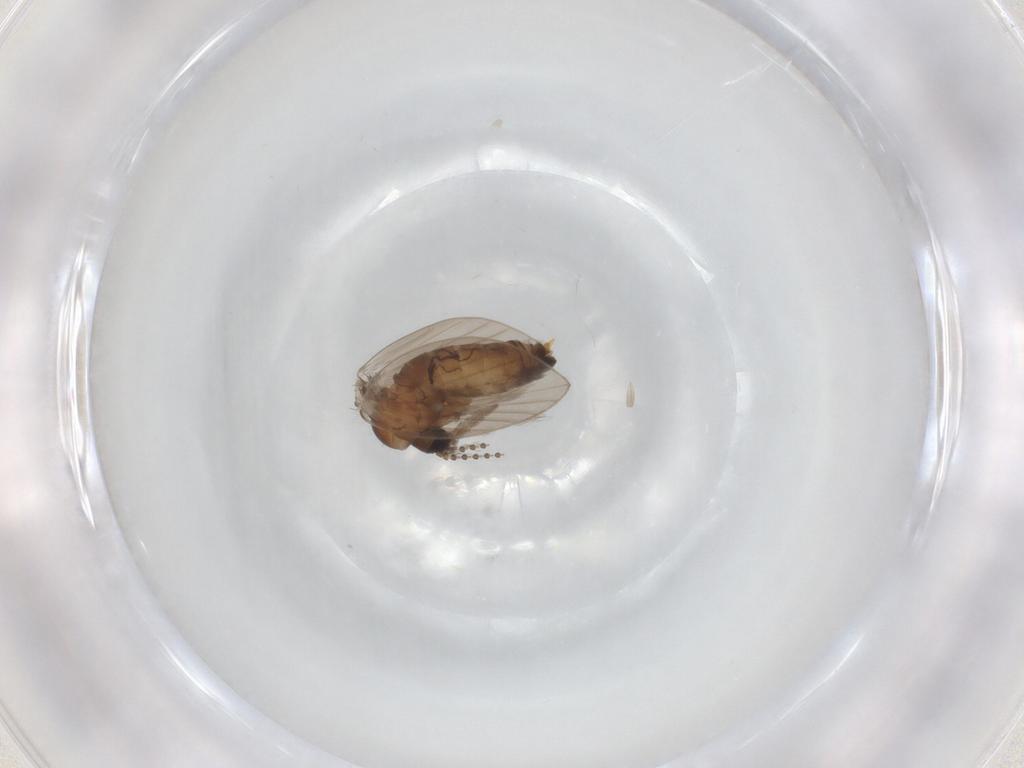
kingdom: Animalia
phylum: Arthropoda
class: Insecta
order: Diptera
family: Psychodidae
